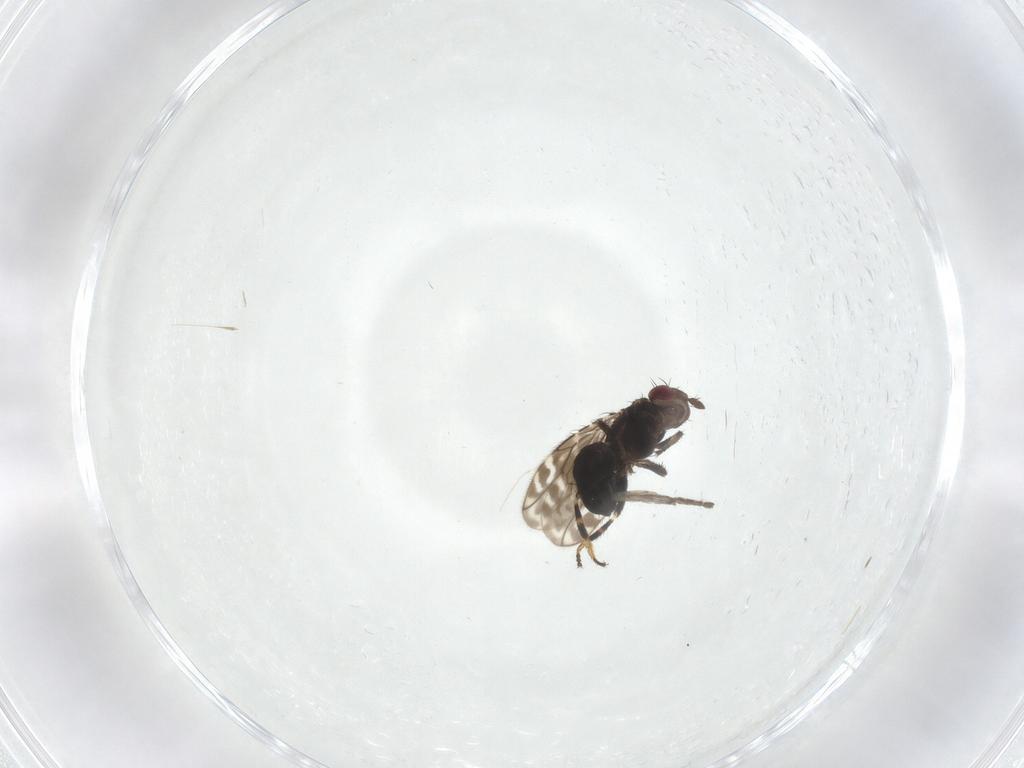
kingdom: Animalia
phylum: Arthropoda
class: Insecta
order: Diptera
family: Sphaeroceridae
